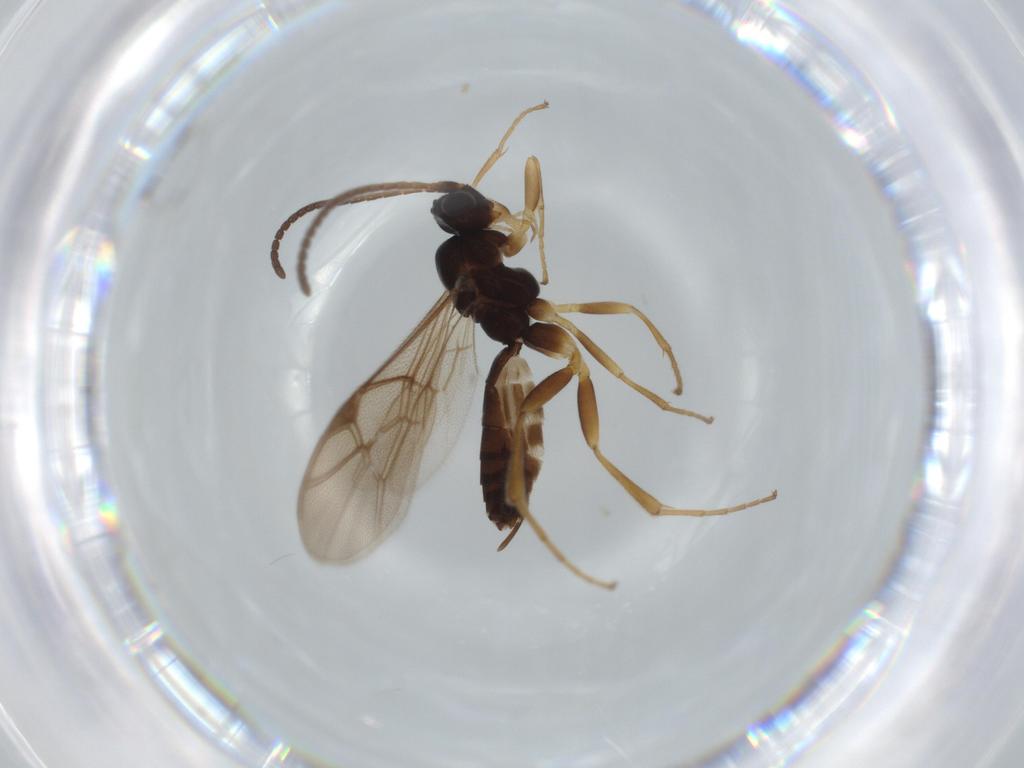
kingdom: Animalia
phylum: Arthropoda
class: Insecta
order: Hymenoptera
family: Ichneumonidae
